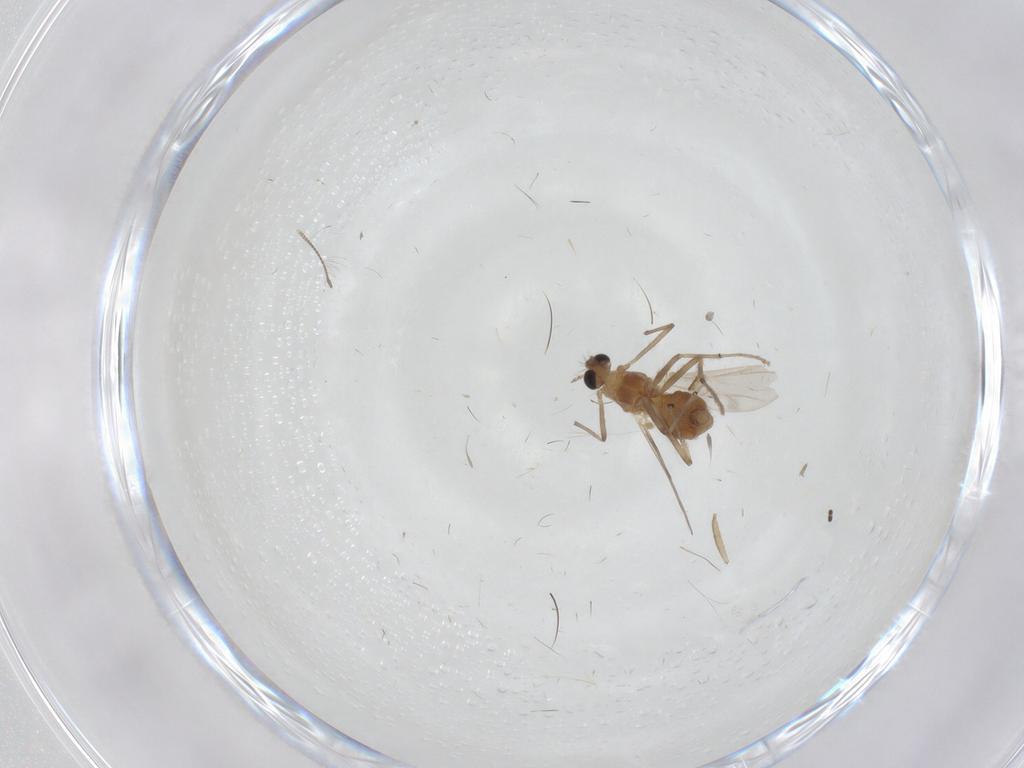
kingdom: Animalia
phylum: Arthropoda
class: Insecta
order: Diptera
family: Chironomidae
